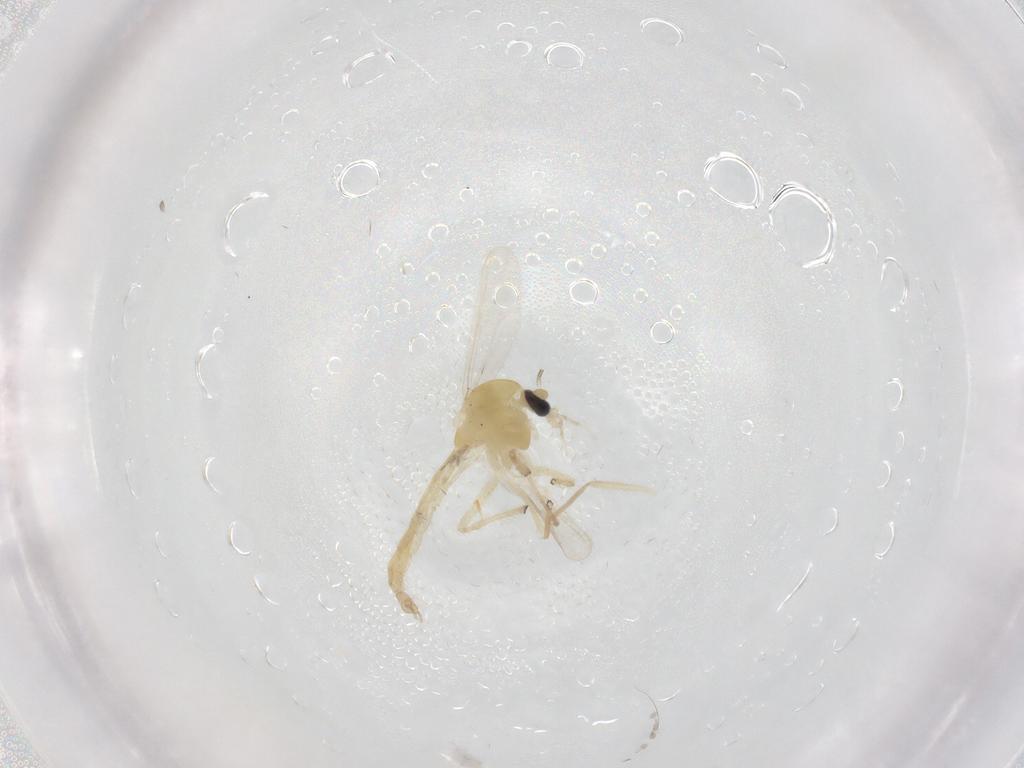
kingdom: Animalia
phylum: Arthropoda
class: Insecta
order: Diptera
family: Chironomidae
